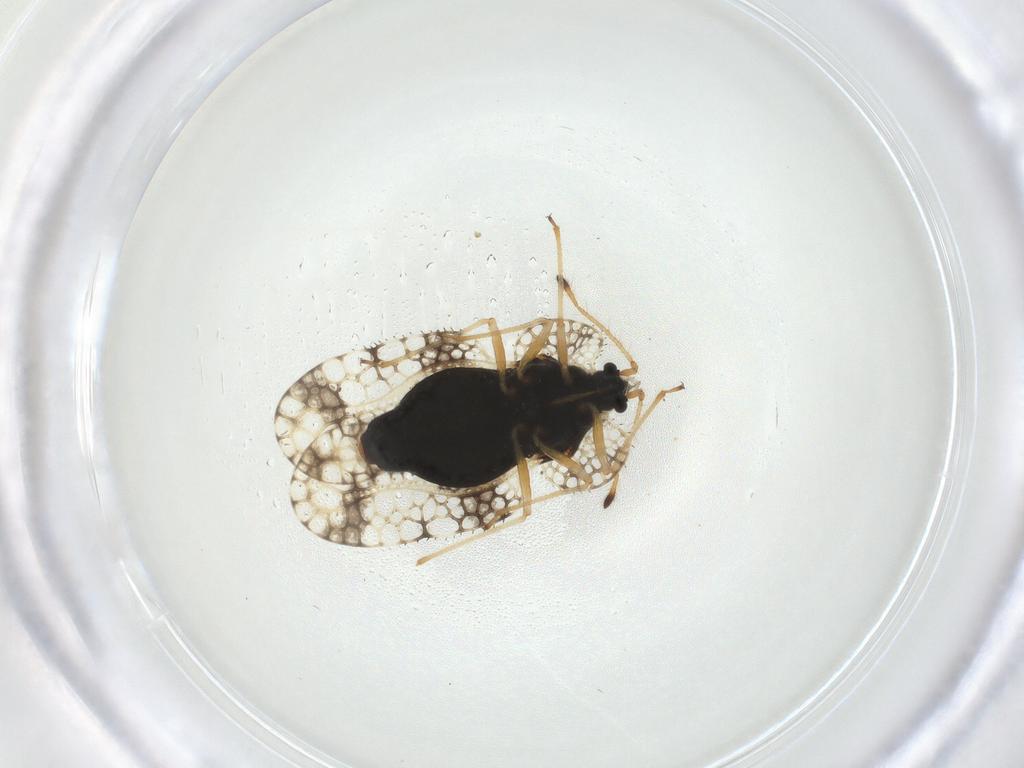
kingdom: Animalia
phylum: Arthropoda
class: Insecta
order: Hemiptera
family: Tingidae
